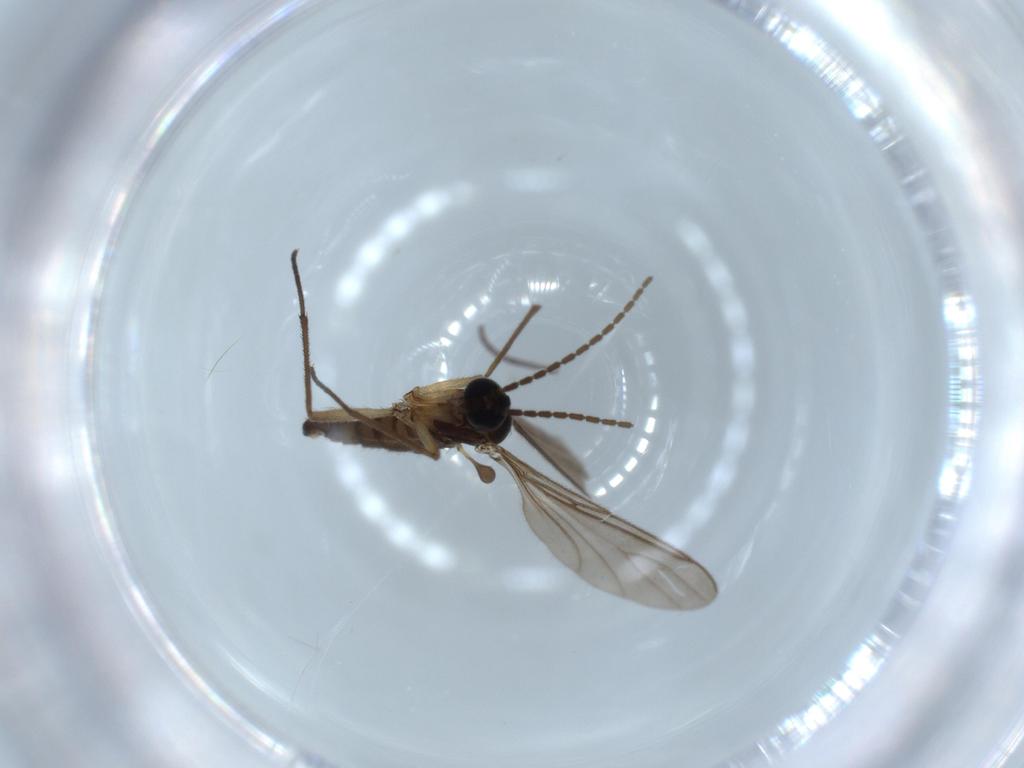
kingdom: Animalia
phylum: Arthropoda
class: Insecta
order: Diptera
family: Sciaridae
